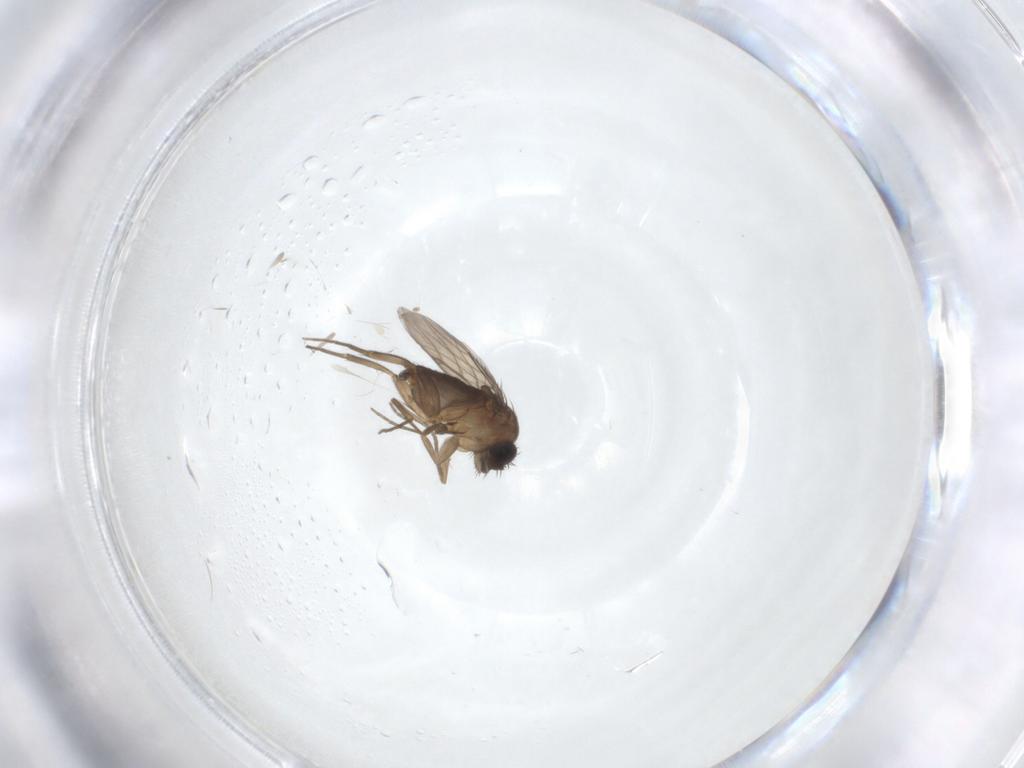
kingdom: Animalia
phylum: Arthropoda
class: Insecta
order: Diptera
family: Phoridae
